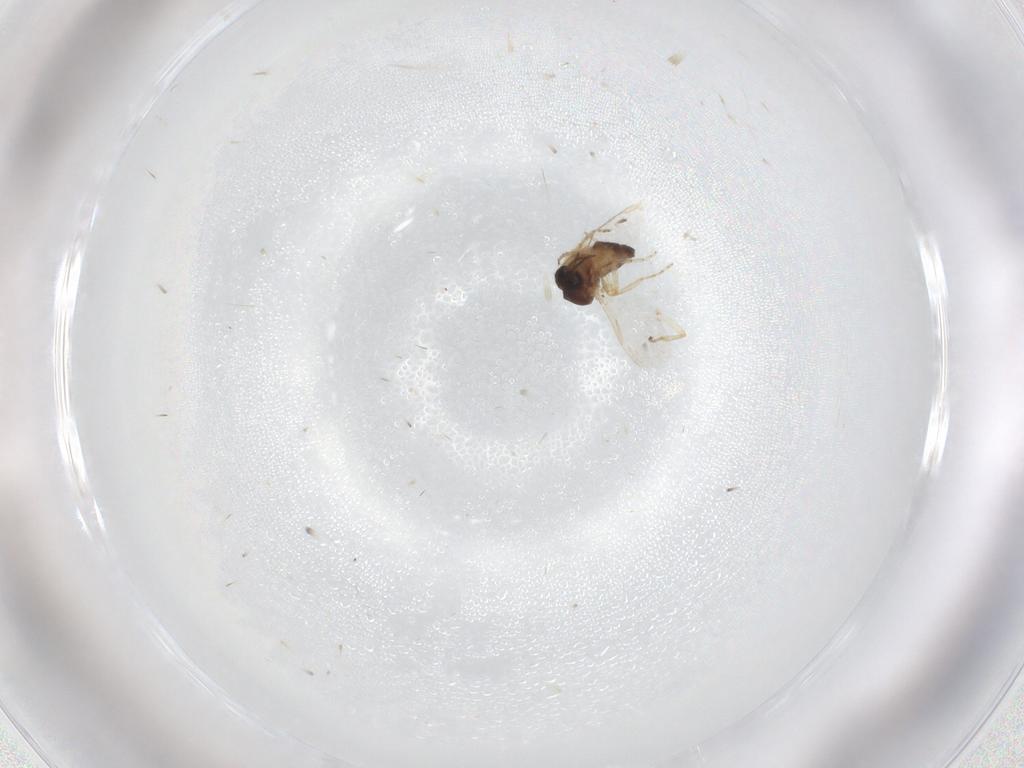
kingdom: Animalia
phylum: Arthropoda
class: Insecta
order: Diptera
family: Ceratopogonidae
